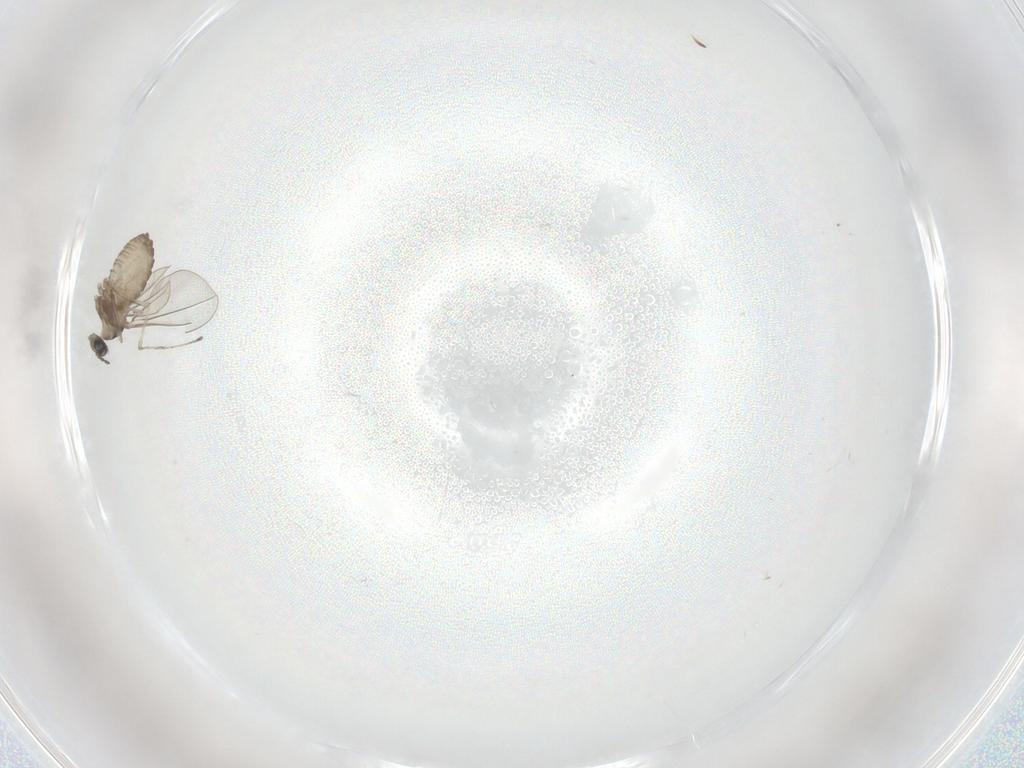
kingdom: Animalia
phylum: Arthropoda
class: Insecta
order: Diptera
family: Cecidomyiidae
